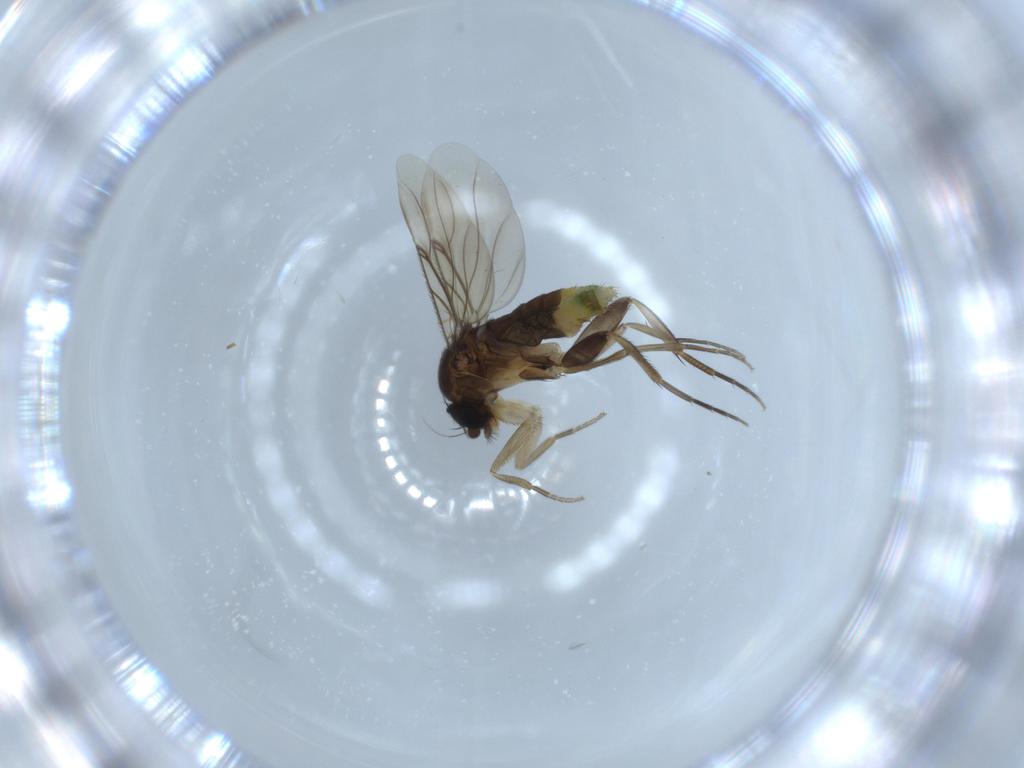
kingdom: Animalia
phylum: Arthropoda
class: Insecta
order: Diptera
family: Phoridae
